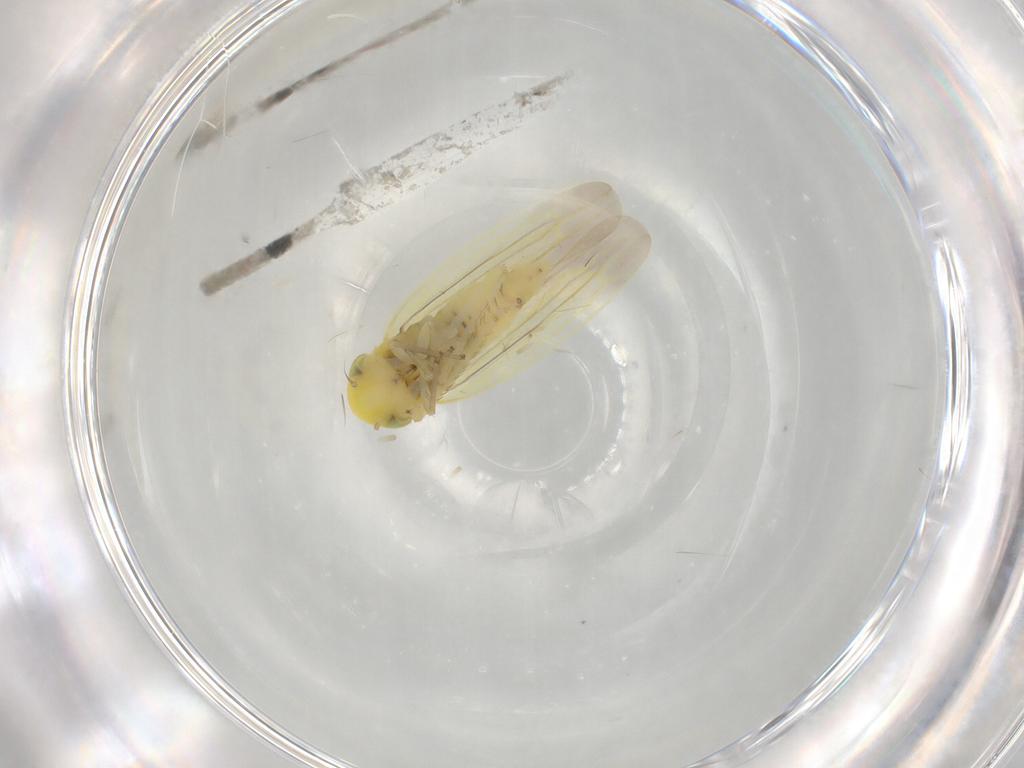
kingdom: Animalia
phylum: Arthropoda
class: Insecta
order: Hemiptera
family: Cicadellidae
